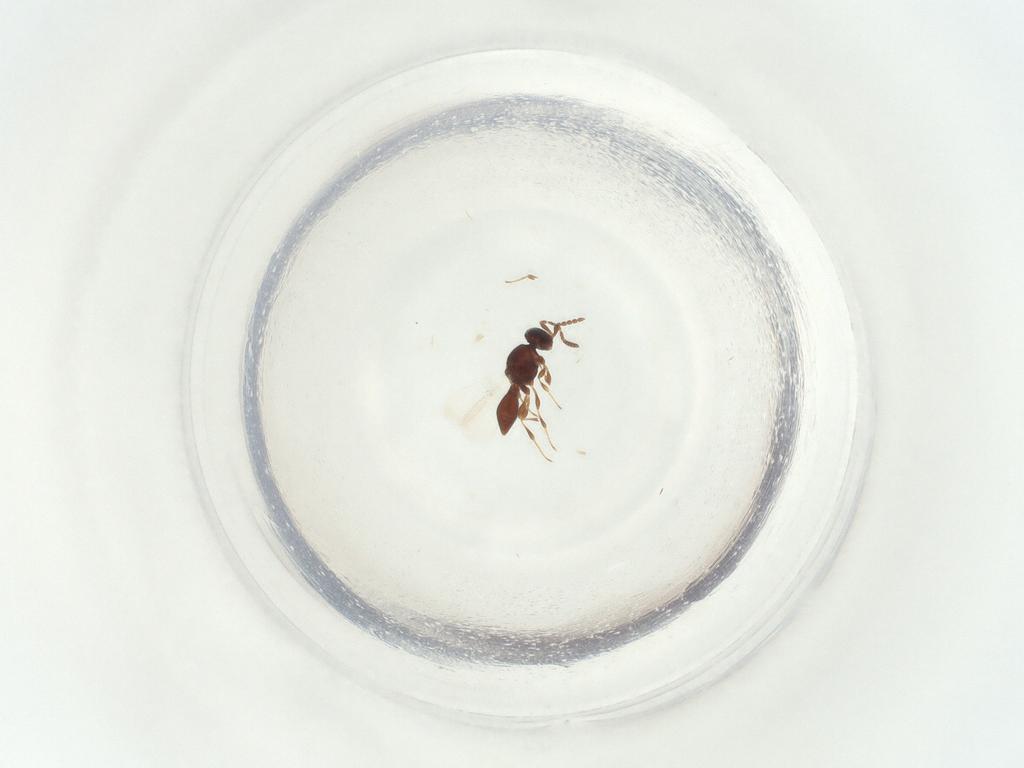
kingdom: Animalia
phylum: Arthropoda
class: Insecta
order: Hymenoptera
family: Platygastridae
